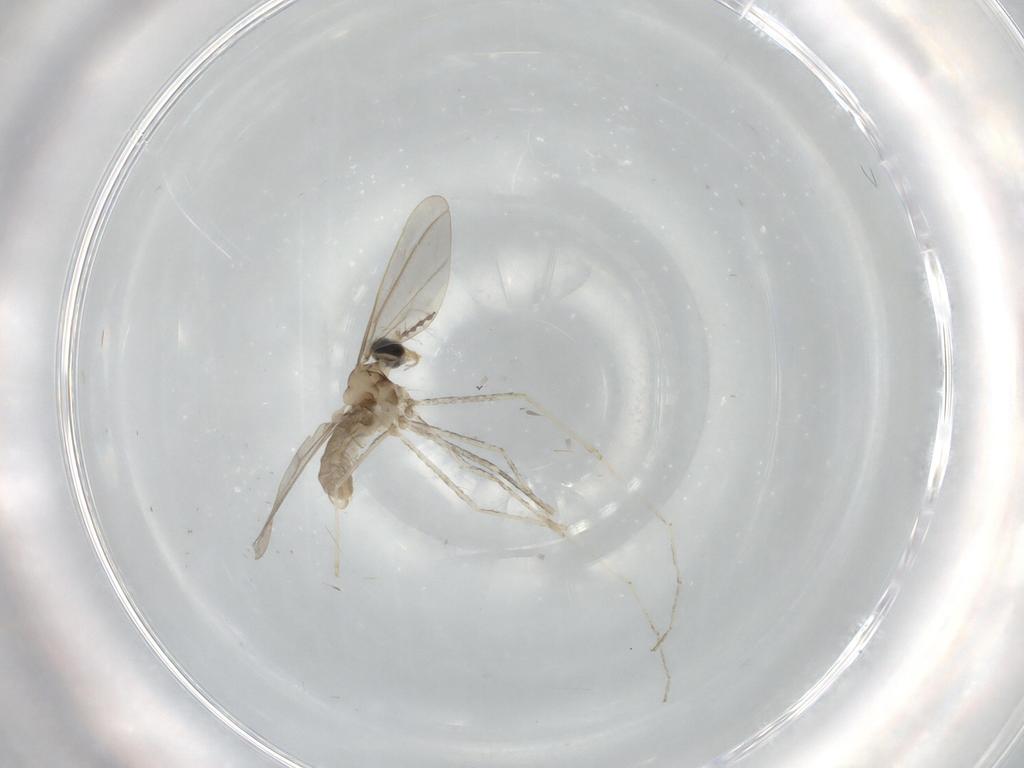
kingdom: Animalia
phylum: Arthropoda
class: Insecta
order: Diptera
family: Cecidomyiidae
